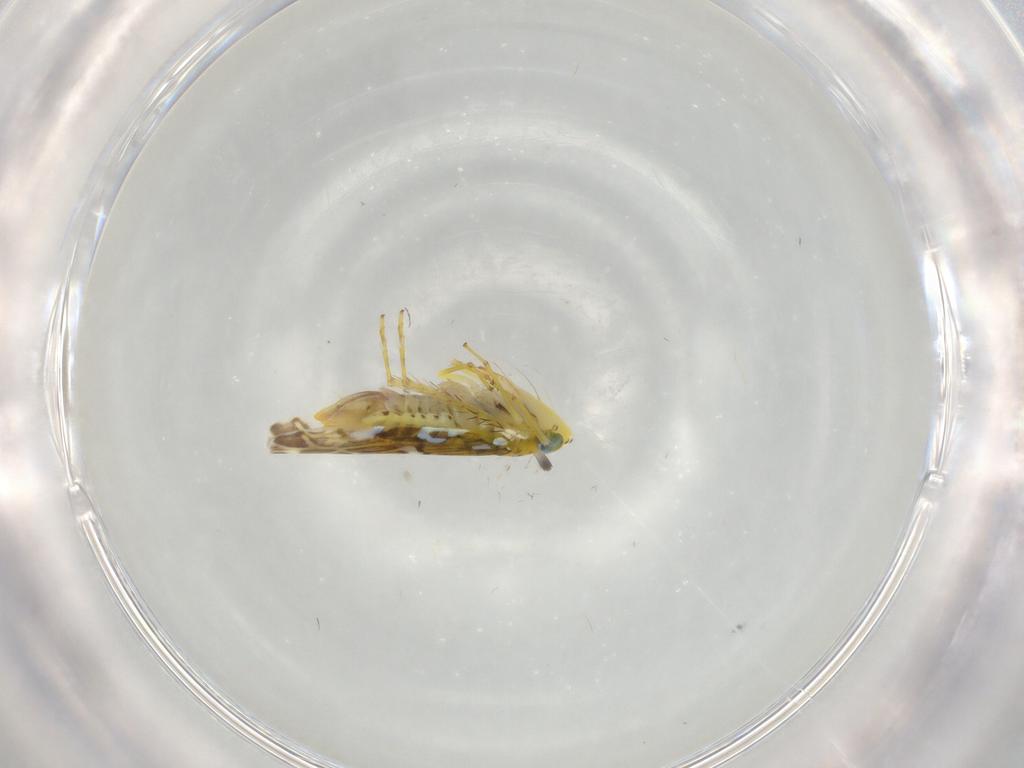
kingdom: Animalia
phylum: Arthropoda
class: Insecta
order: Hemiptera
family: Cicadellidae
